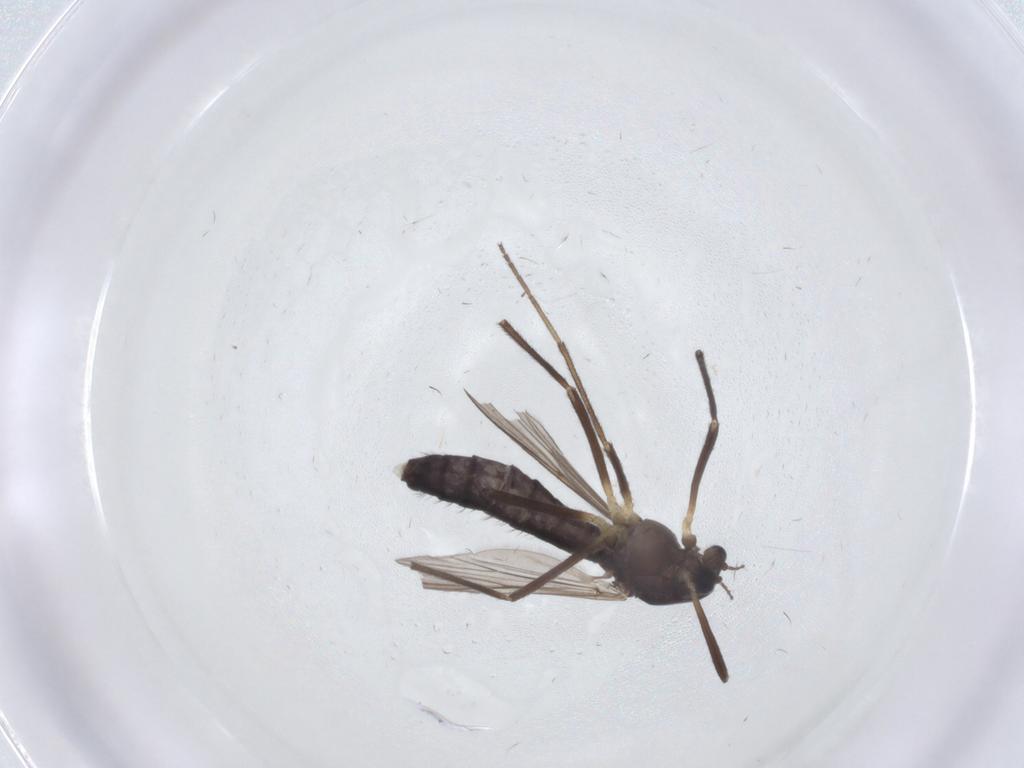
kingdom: Animalia
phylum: Arthropoda
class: Insecta
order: Diptera
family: Chironomidae
